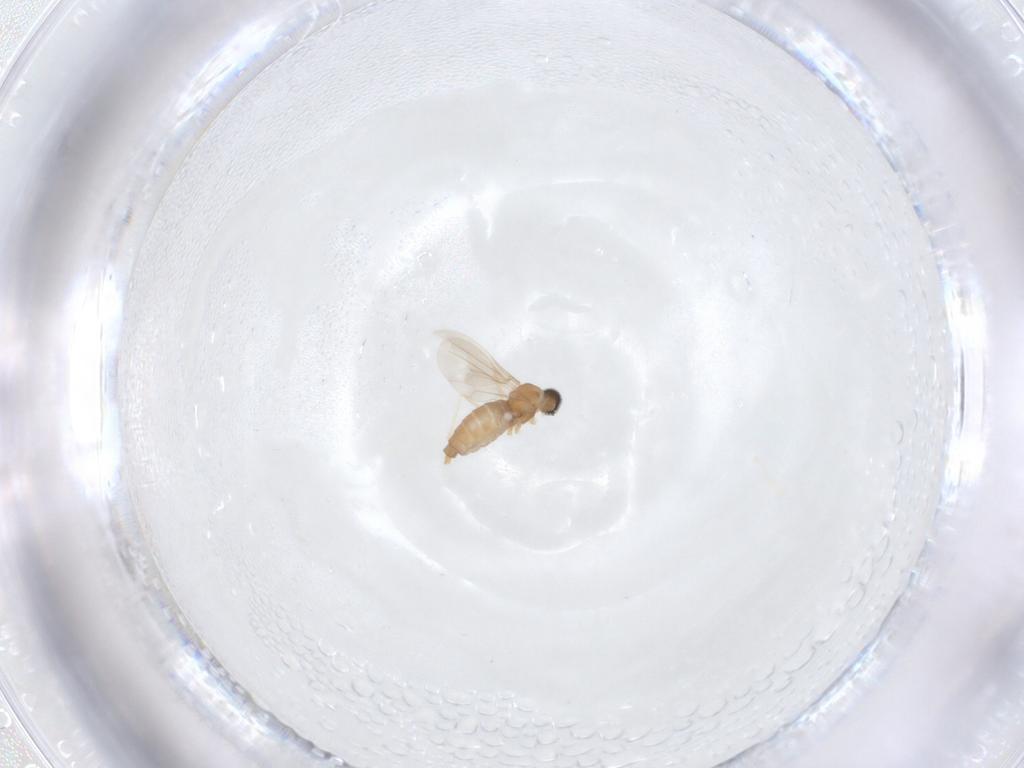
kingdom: Animalia
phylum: Arthropoda
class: Insecta
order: Diptera
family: Cecidomyiidae
